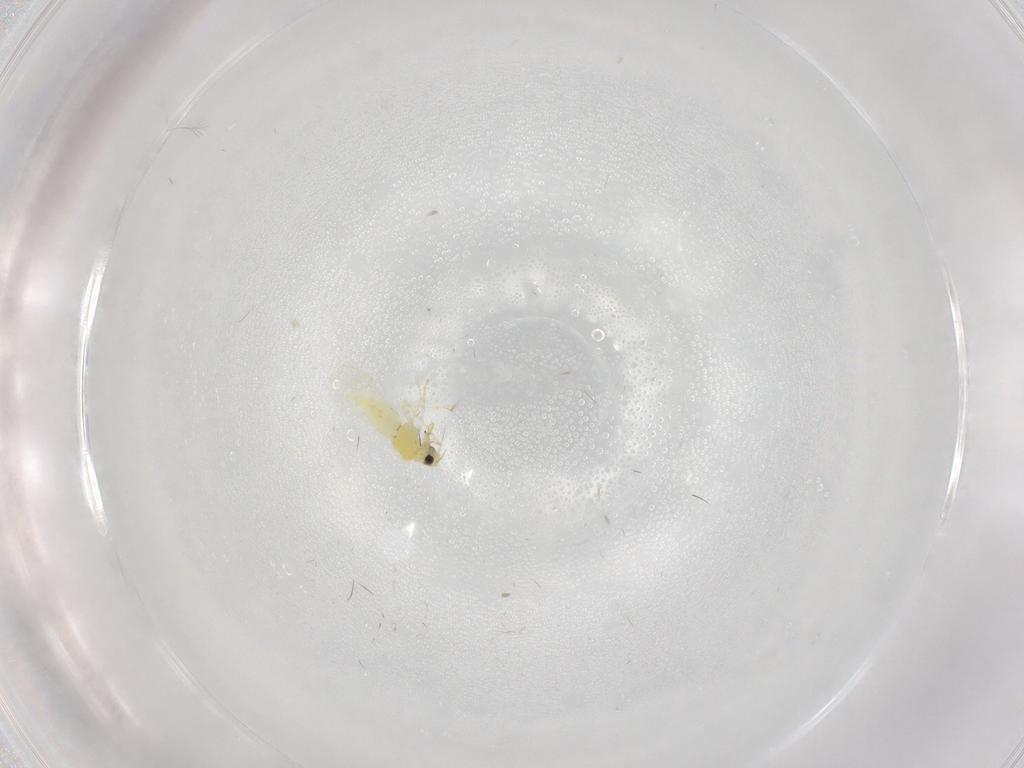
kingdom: Animalia
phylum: Arthropoda
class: Insecta
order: Hemiptera
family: Aleyrodidae
